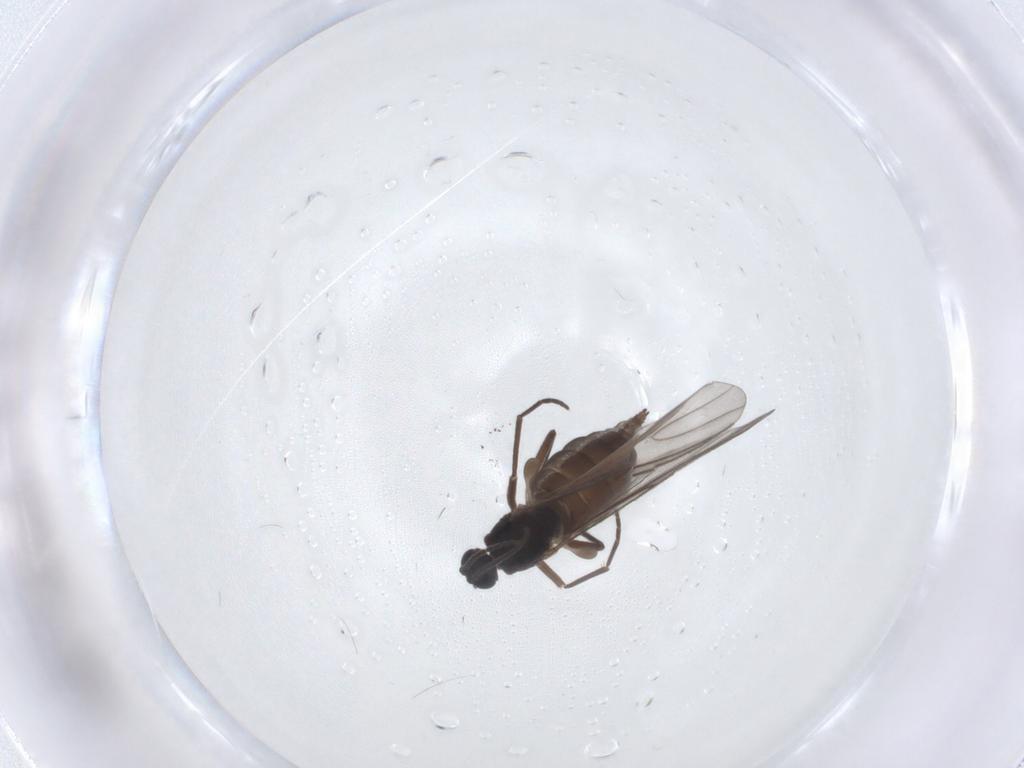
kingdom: Animalia
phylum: Arthropoda
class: Insecta
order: Diptera
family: Sciaridae
